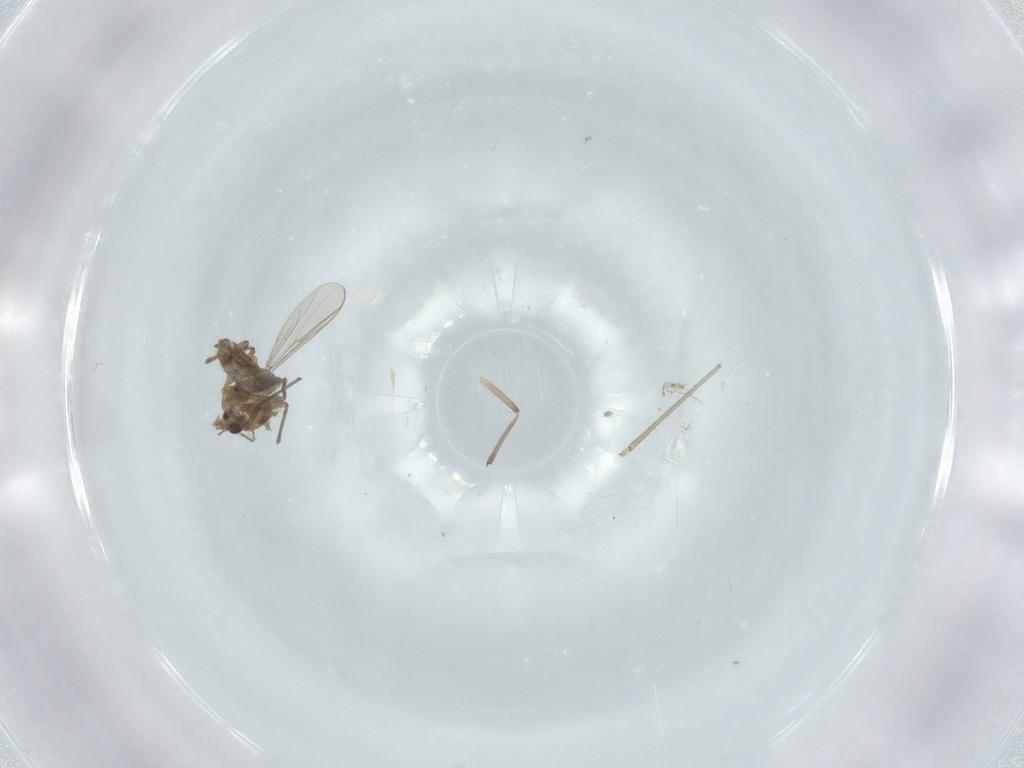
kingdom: Animalia
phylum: Arthropoda
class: Insecta
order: Diptera
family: Chironomidae
